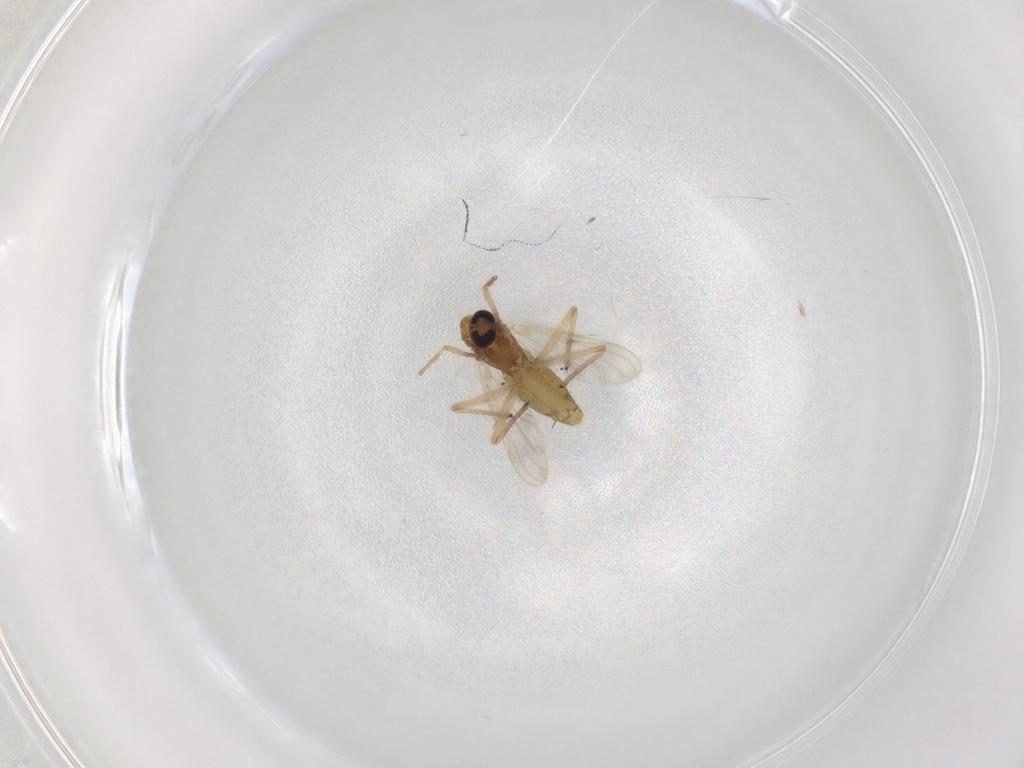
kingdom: Animalia
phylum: Arthropoda
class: Insecta
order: Diptera
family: Chironomidae
